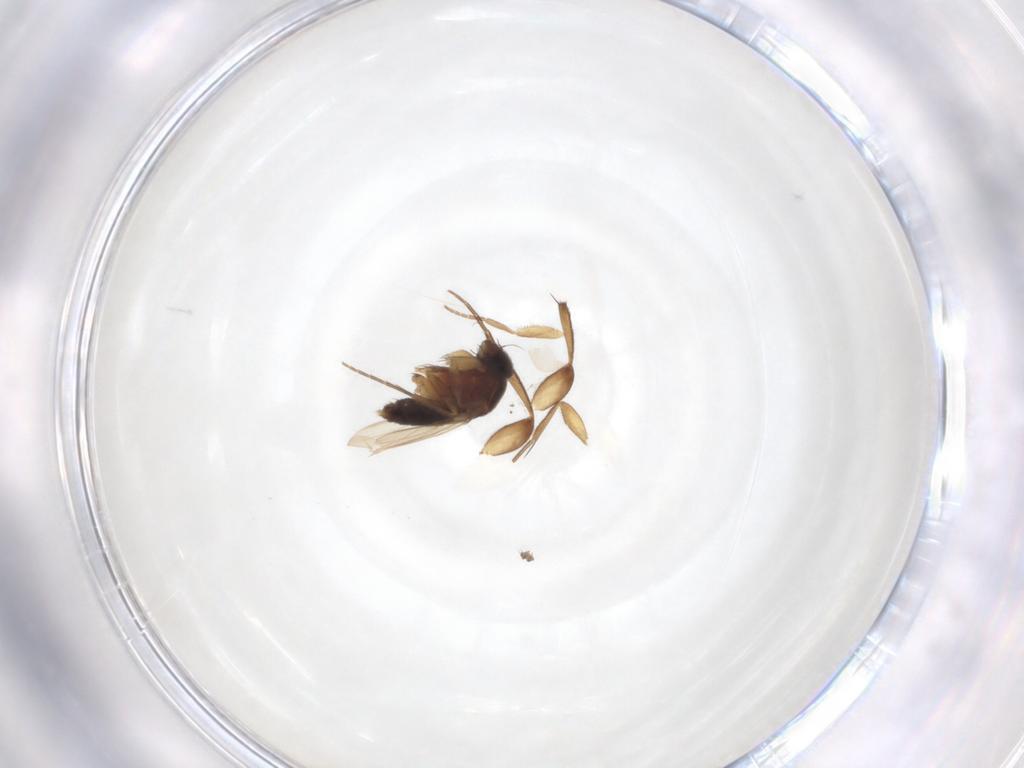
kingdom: Animalia
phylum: Arthropoda
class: Insecta
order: Diptera
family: Phoridae
